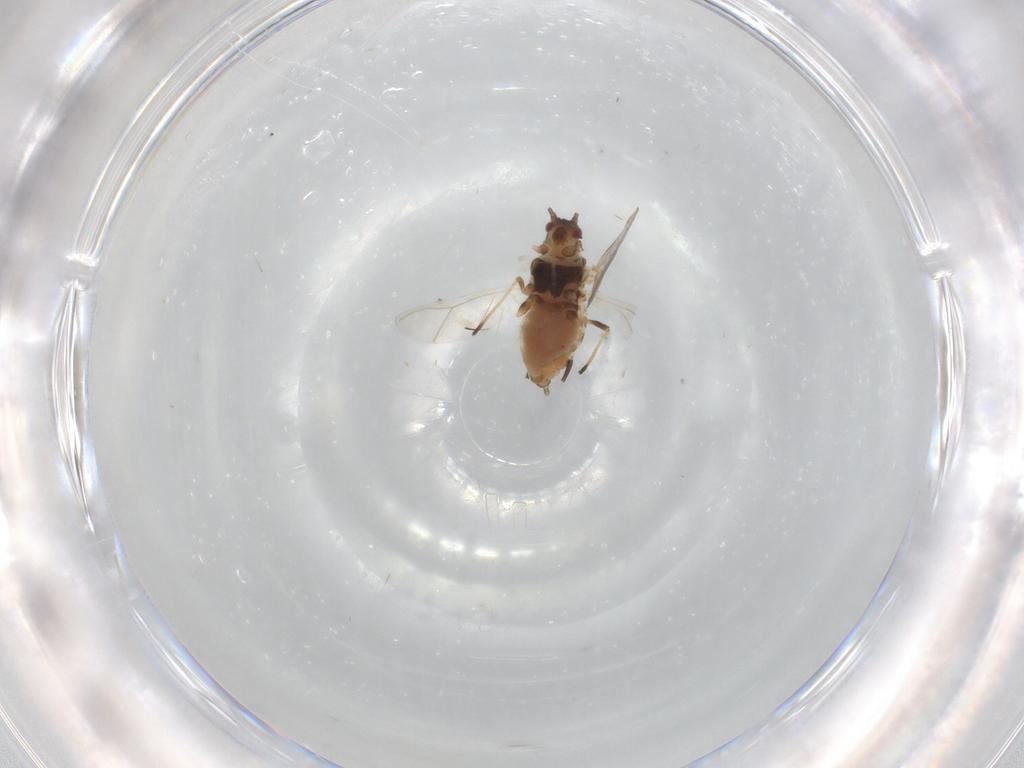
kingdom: Animalia
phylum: Arthropoda
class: Insecta
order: Hemiptera
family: Aphididae
